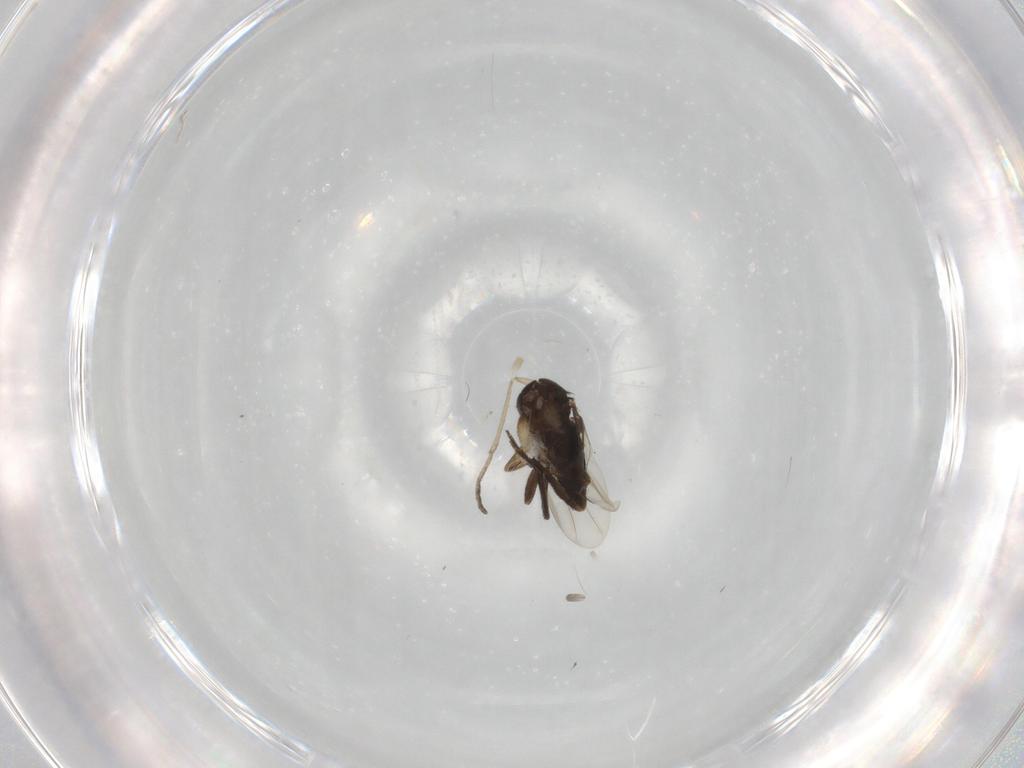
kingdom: Animalia
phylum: Arthropoda
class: Insecta
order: Diptera
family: Phoridae
